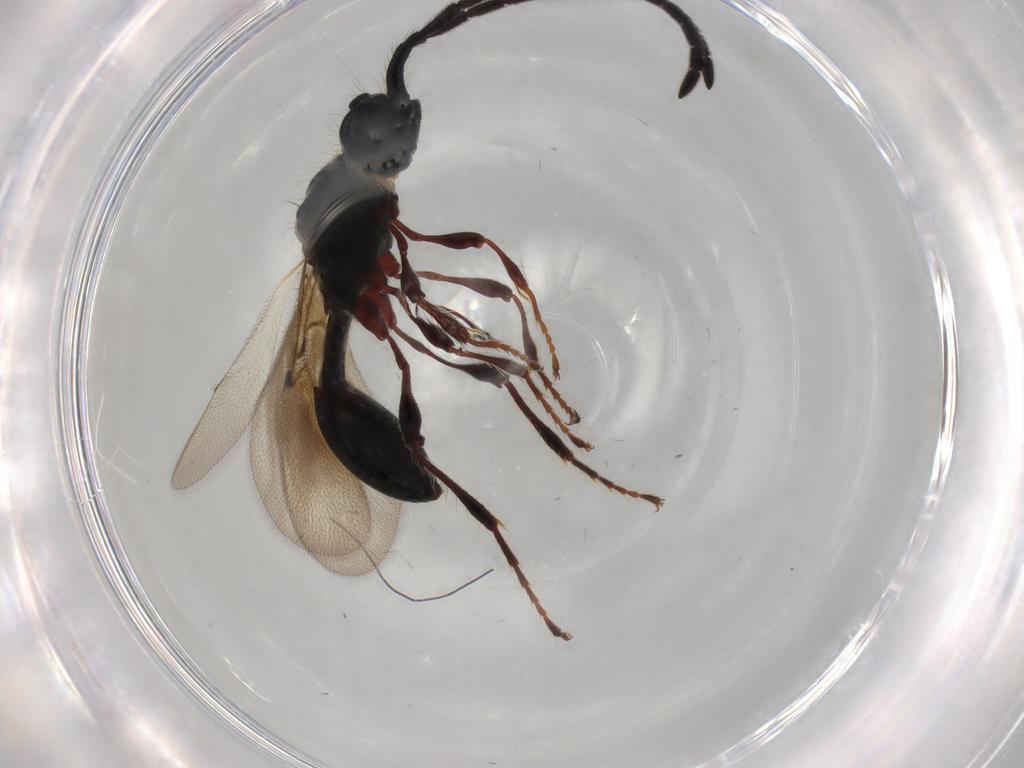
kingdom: Animalia
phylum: Arthropoda
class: Insecta
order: Hymenoptera
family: Diapriidae
